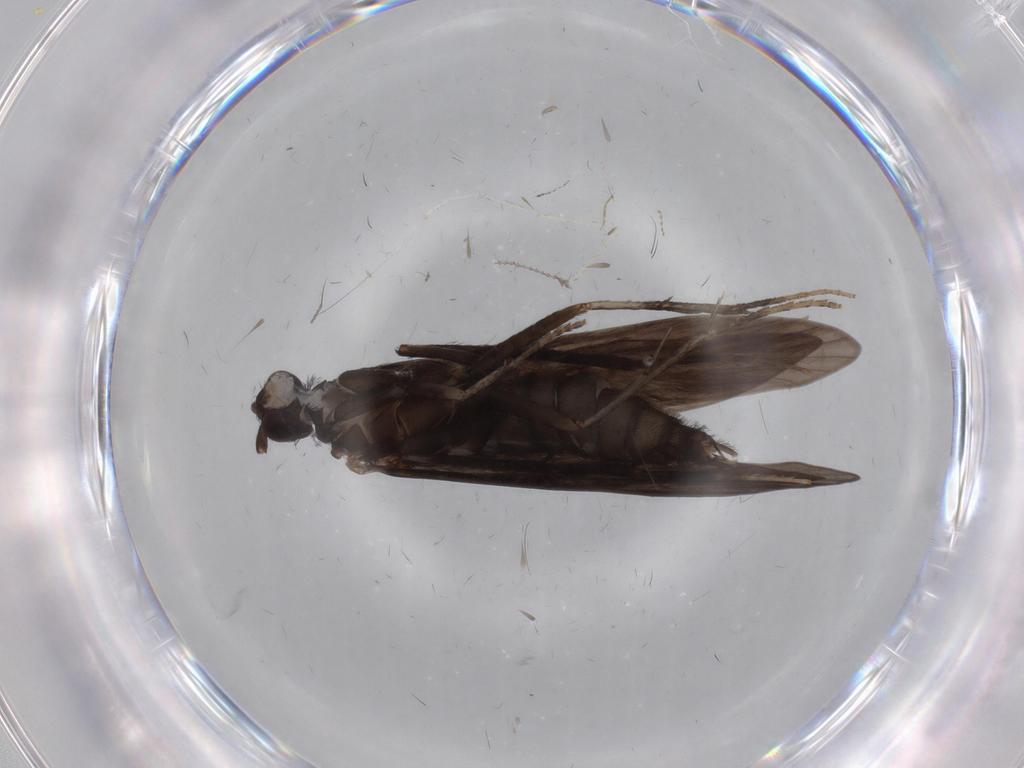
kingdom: Animalia
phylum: Arthropoda
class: Insecta
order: Trichoptera
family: Xiphocentronidae
